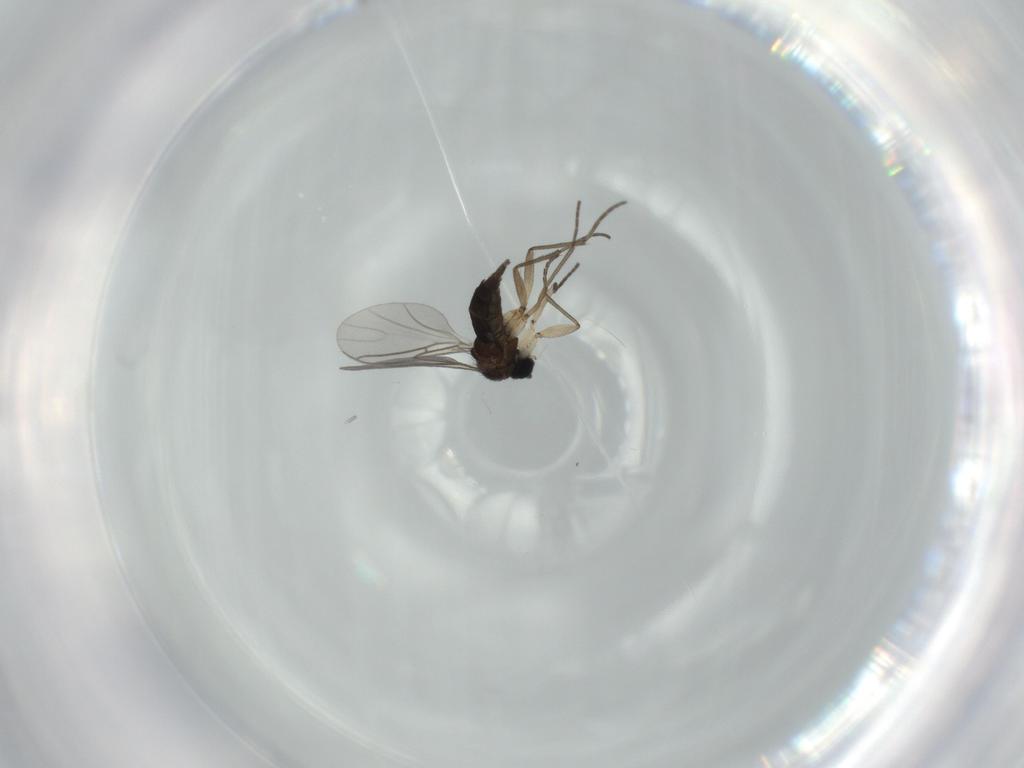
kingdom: Animalia
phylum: Arthropoda
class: Insecta
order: Diptera
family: Sciaridae
